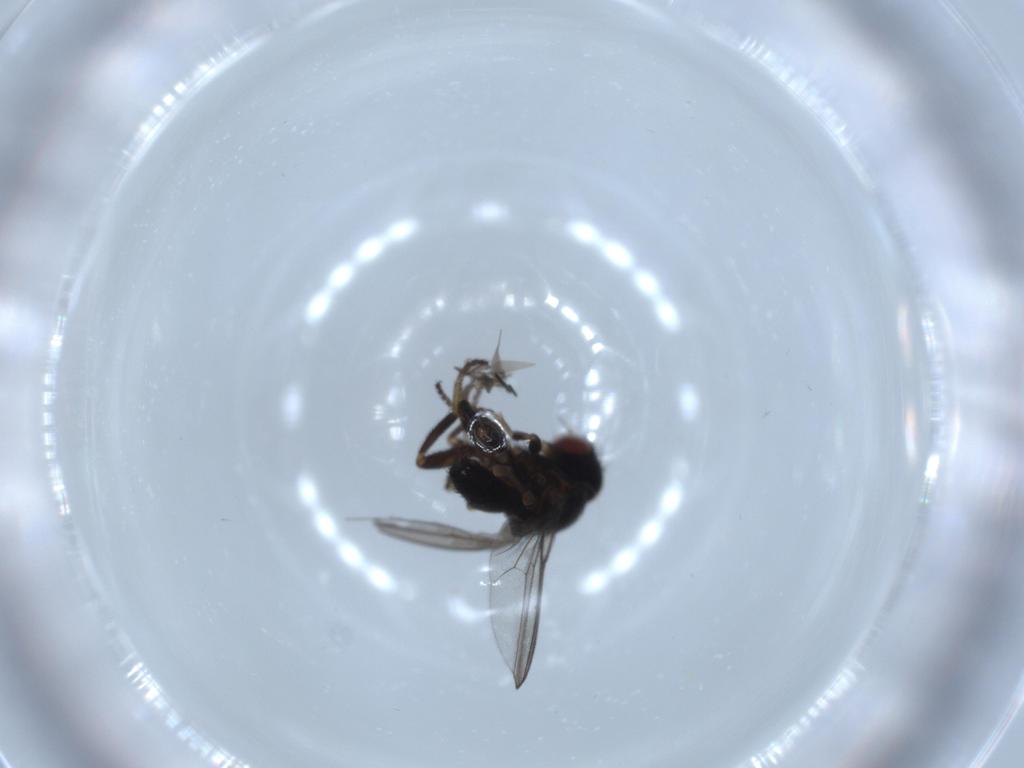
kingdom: Animalia
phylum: Arthropoda
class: Insecta
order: Diptera
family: Milichiidae
